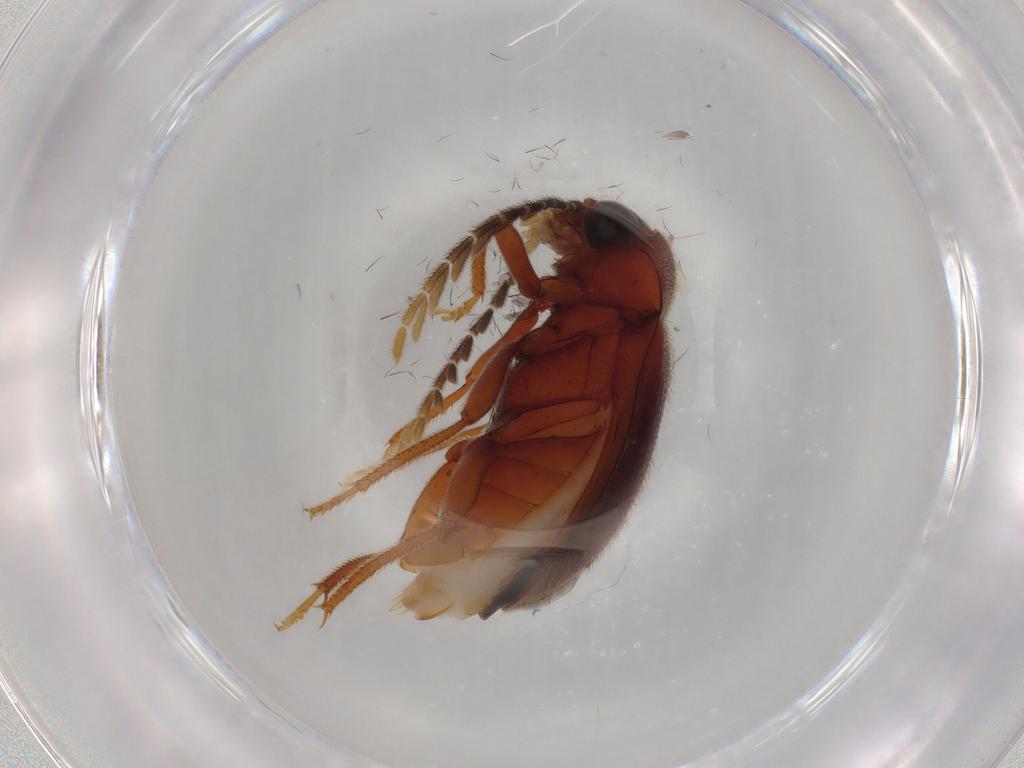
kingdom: Animalia
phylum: Arthropoda
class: Insecta
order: Coleoptera
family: Ptilodactylidae
